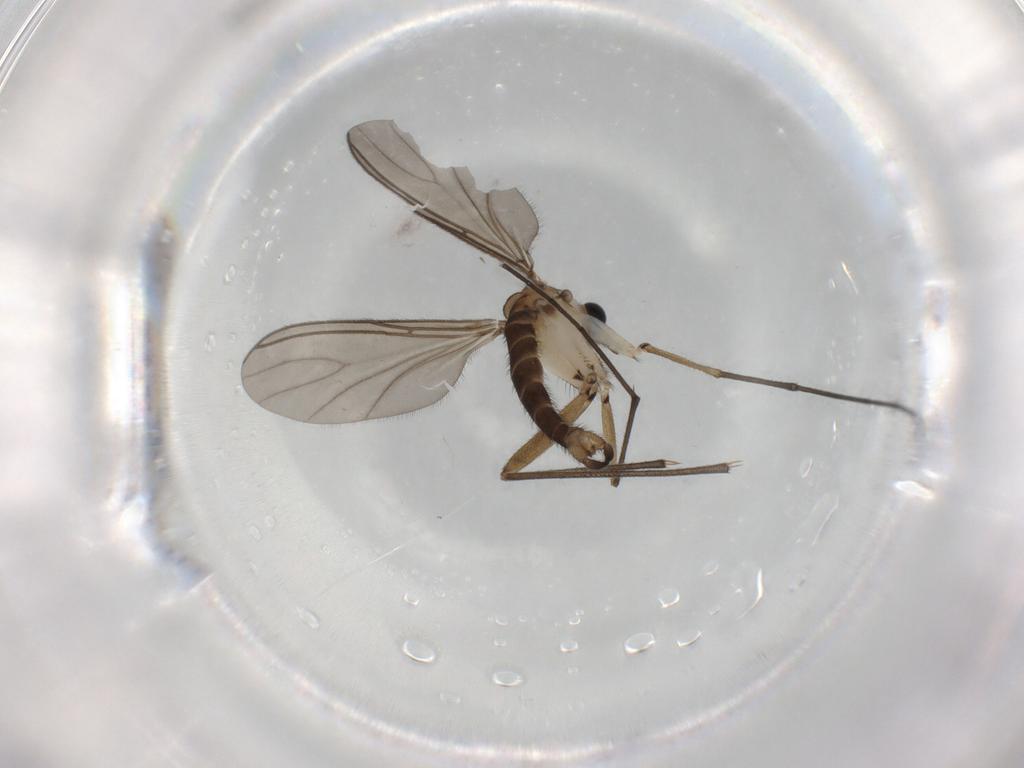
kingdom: Animalia
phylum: Arthropoda
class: Insecta
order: Diptera
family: Sciaridae
